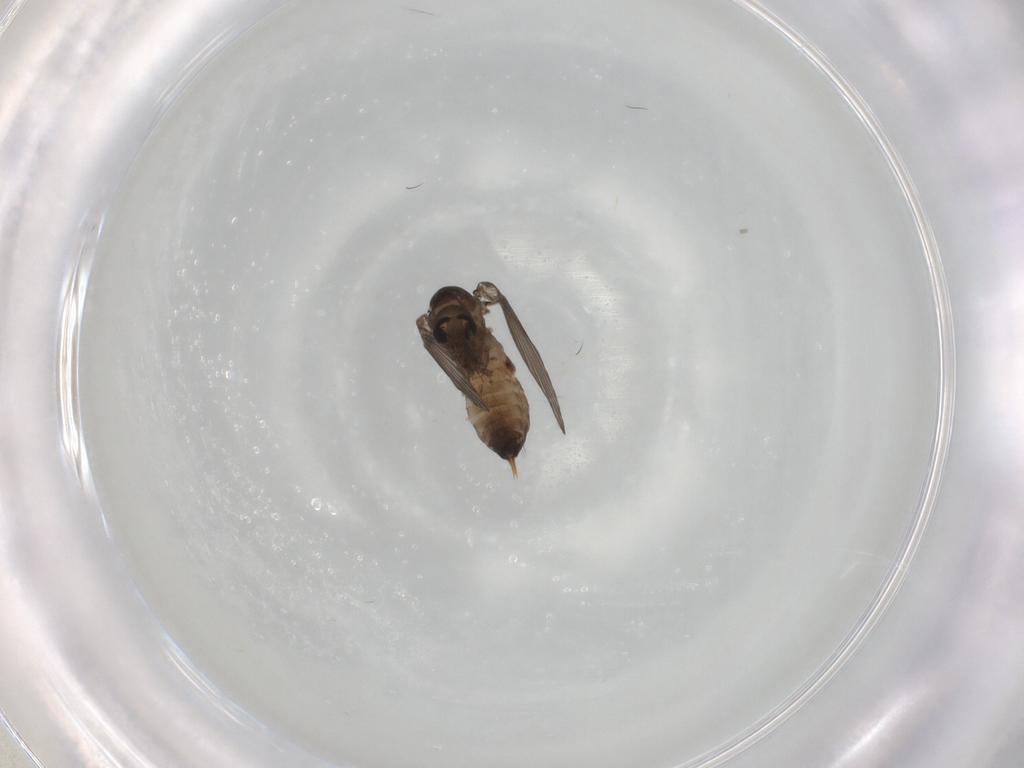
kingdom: Animalia
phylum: Arthropoda
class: Insecta
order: Diptera
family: Psychodidae
